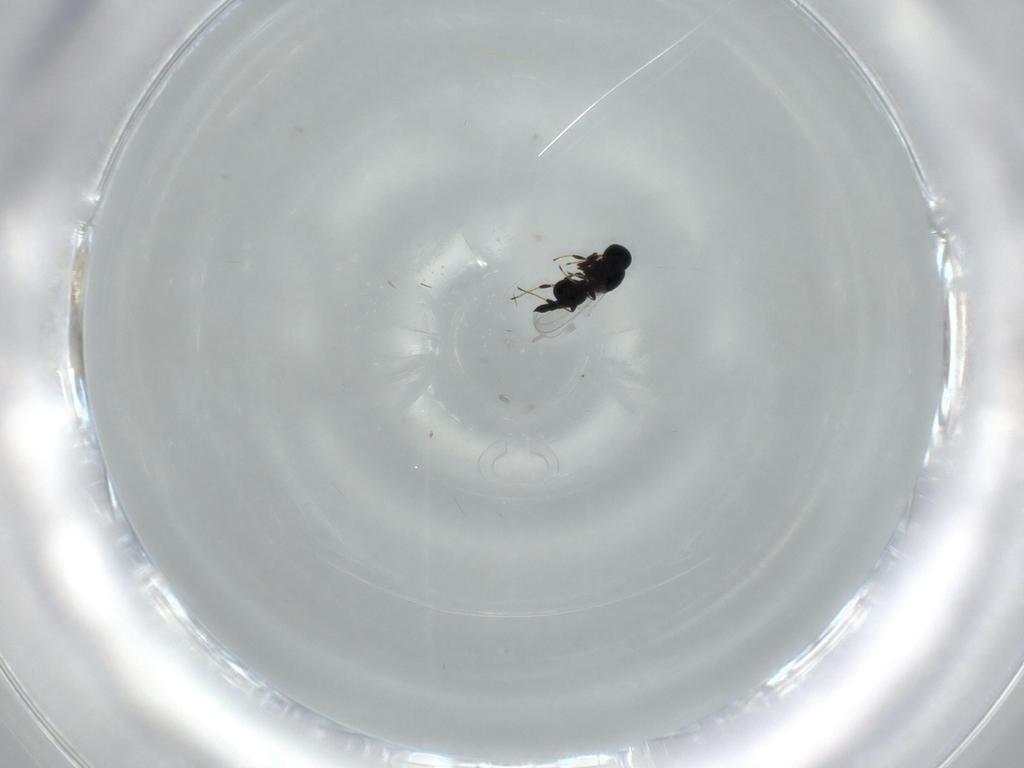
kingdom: Animalia
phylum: Arthropoda
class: Insecta
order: Hymenoptera
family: Platygastridae
